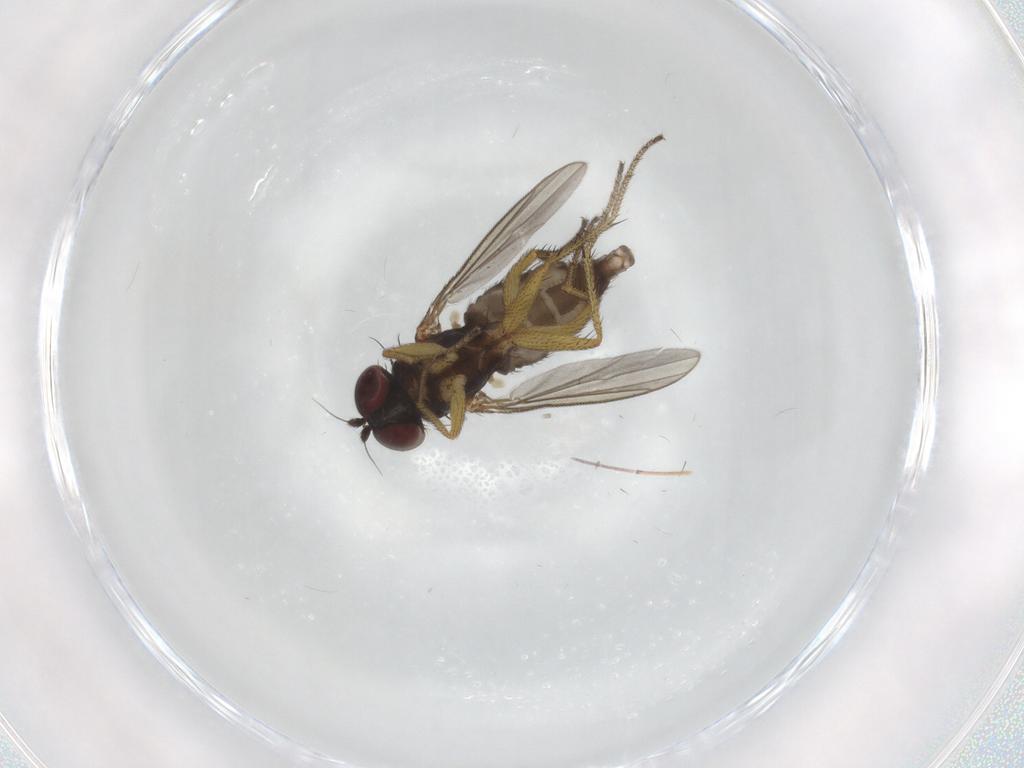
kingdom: Animalia
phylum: Arthropoda
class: Insecta
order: Diptera
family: Dolichopodidae
